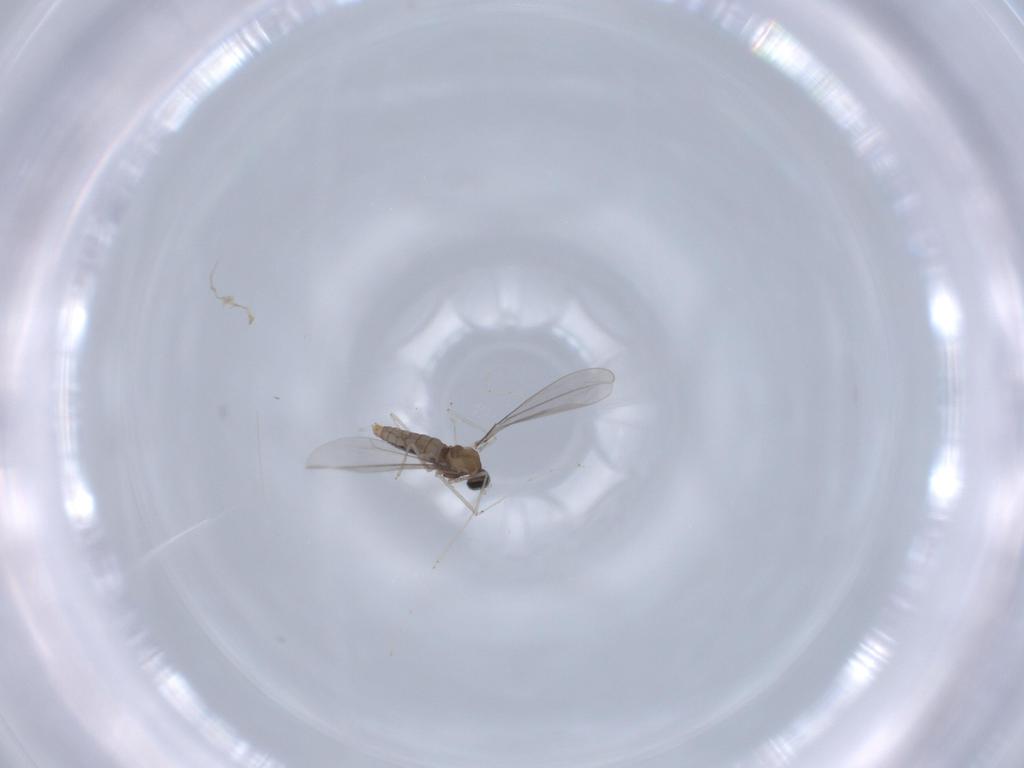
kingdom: Animalia
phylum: Arthropoda
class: Insecta
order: Diptera
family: Cecidomyiidae
